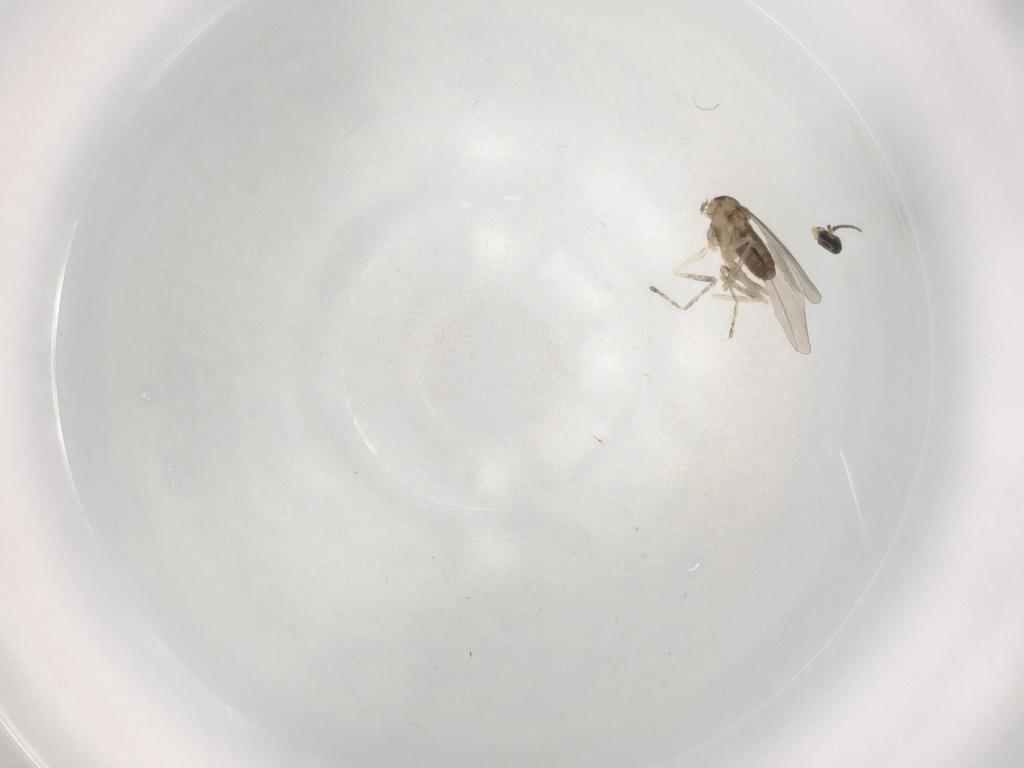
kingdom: Animalia
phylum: Arthropoda
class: Insecta
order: Diptera
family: Cecidomyiidae
